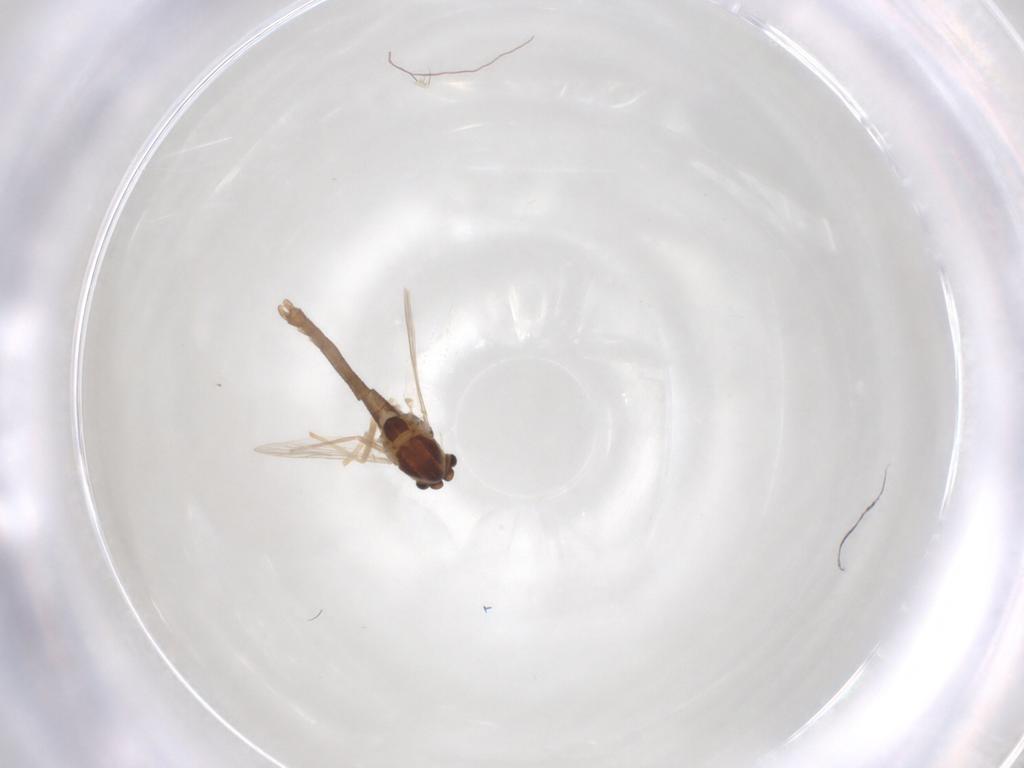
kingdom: Animalia
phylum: Arthropoda
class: Insecta
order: Diptera
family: Chironomidae
